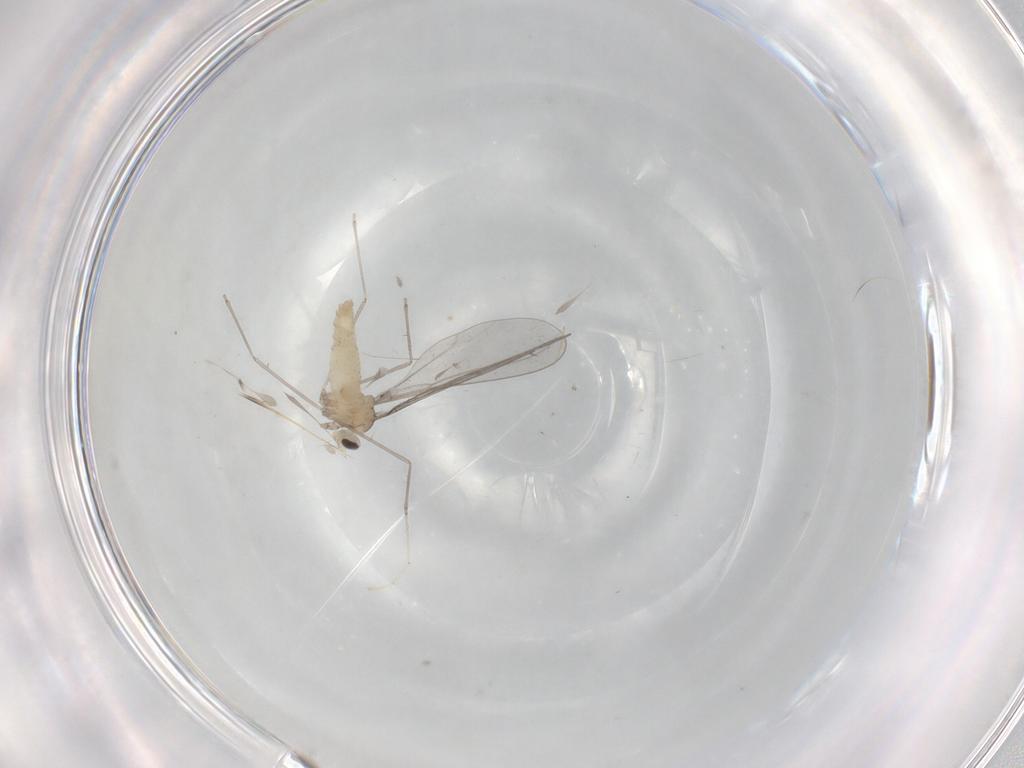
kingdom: Animalia
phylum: Arthropoda
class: Insecta
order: Diptera
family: Cecidomyiidae
